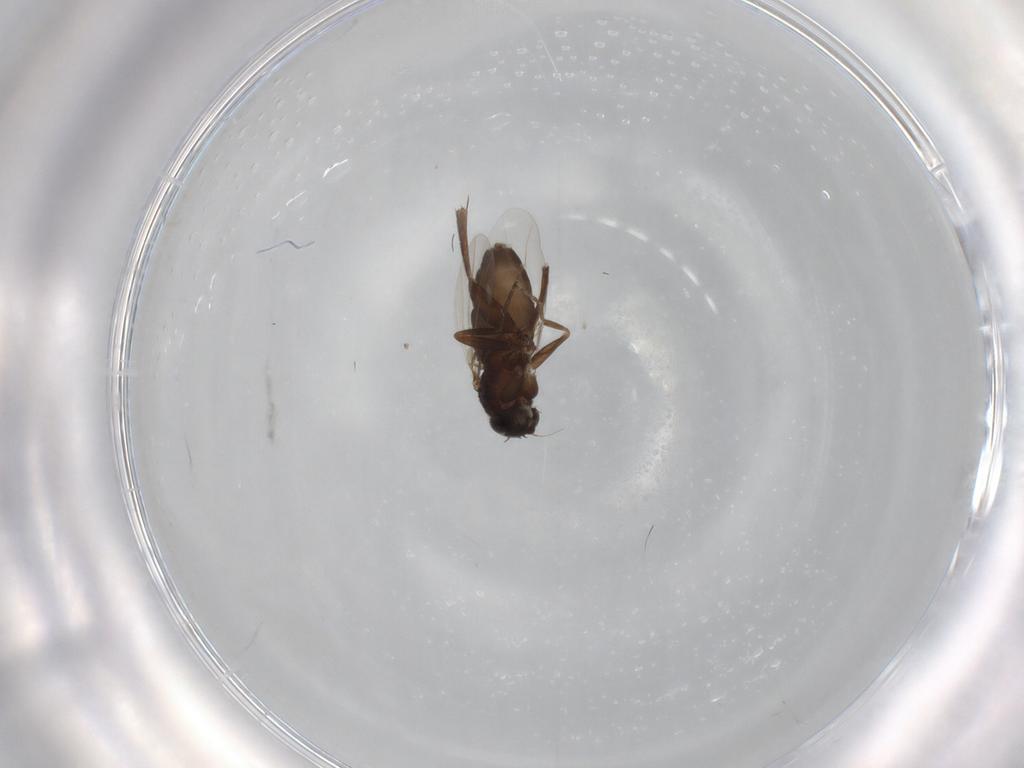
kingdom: Animalia
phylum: Arthropoda
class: Insecta
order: Diptera
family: Phoridae
